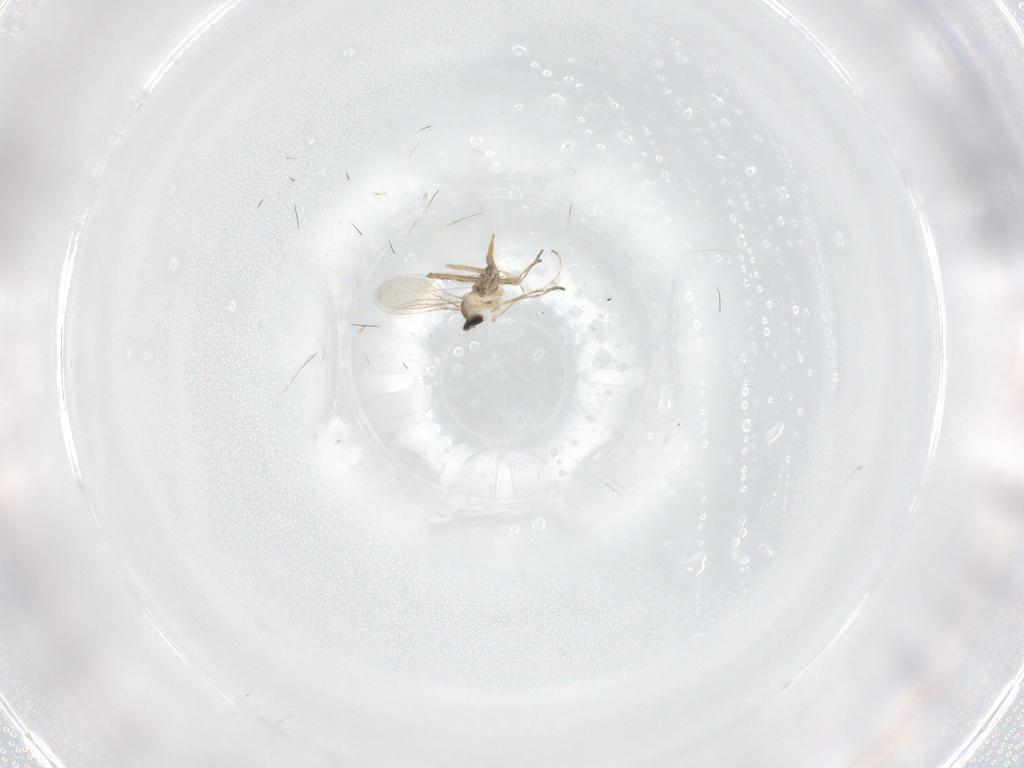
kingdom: Animalia
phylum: Arthropoda
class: Insecta
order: Diptera
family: Cecidomyiidae
